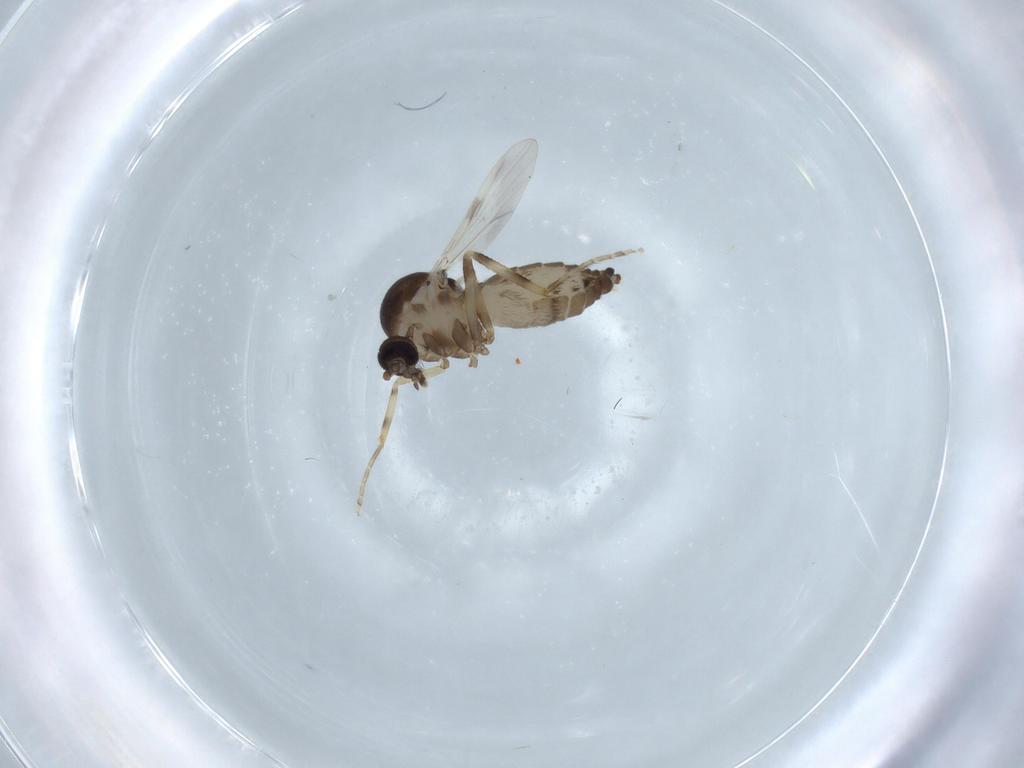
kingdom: Animalia
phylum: Arthropoda
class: Insecta
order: Diptera
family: Ceratopogonidae
